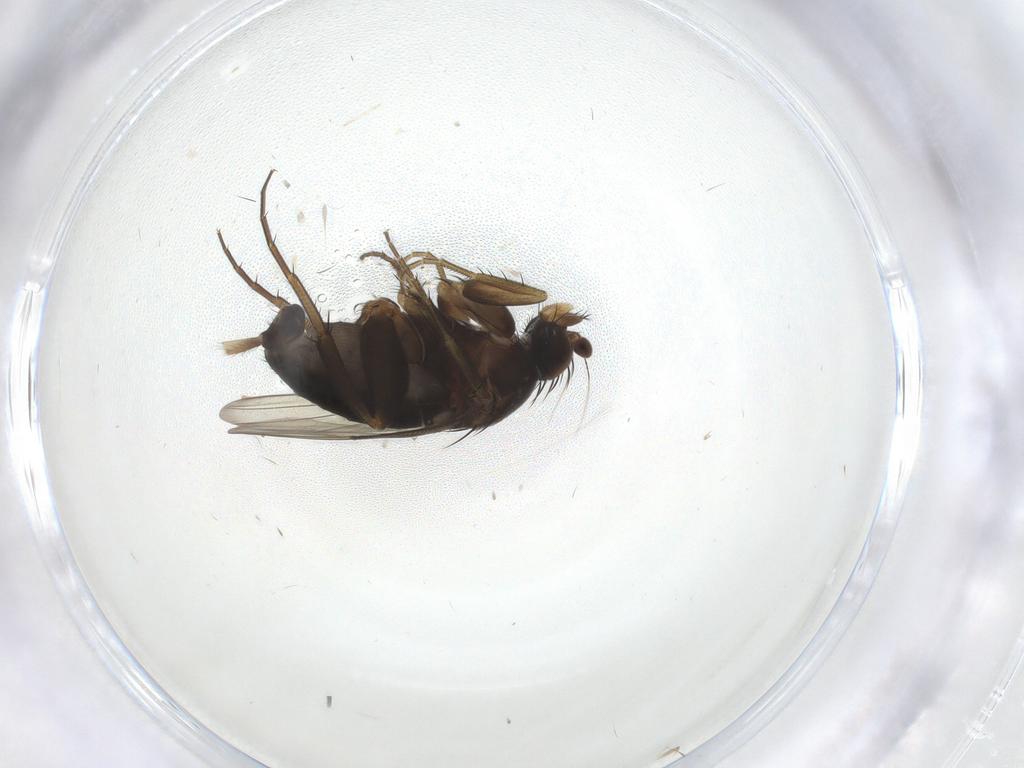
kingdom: Animalia
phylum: Arthropoda
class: Insecta
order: Diptera
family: Phoridae
